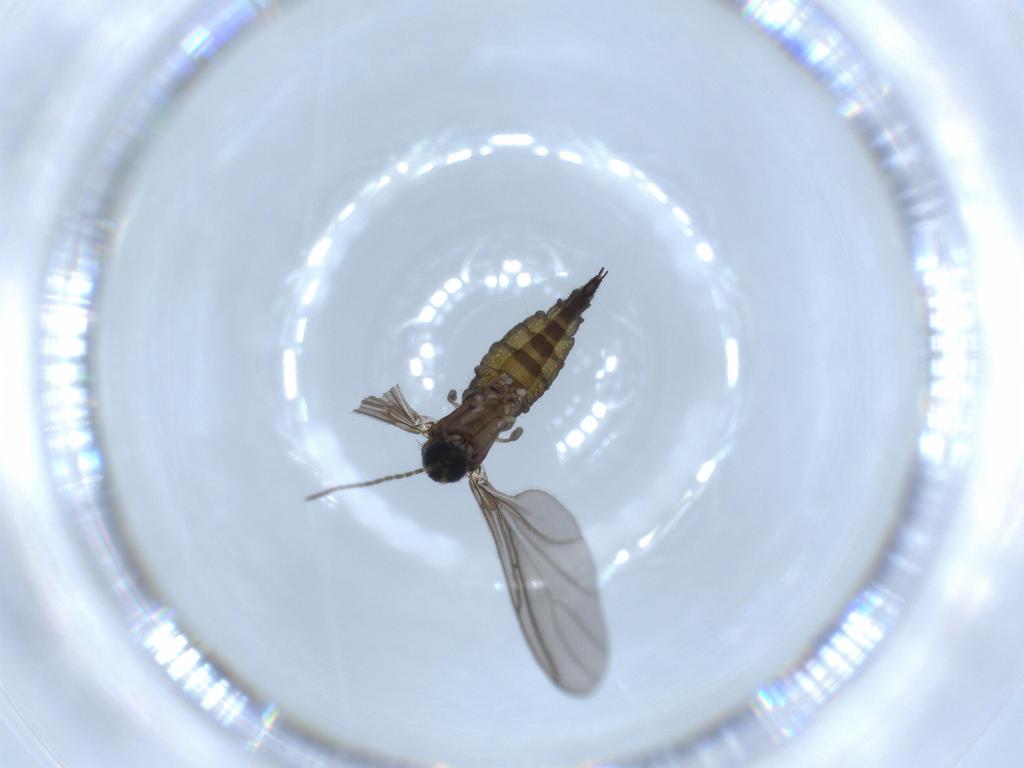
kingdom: Animalia
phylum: Arthropoda
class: Insecta
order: Diptera
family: Sciaridae
